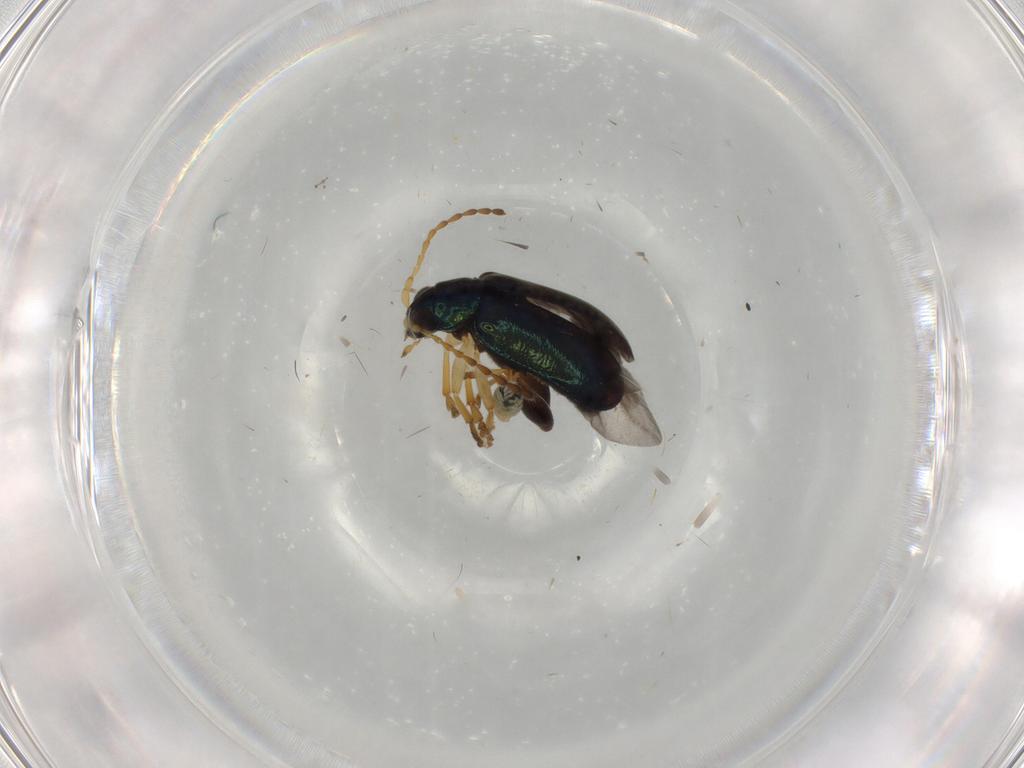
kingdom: Animalia
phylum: Arthropoda
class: Insecta
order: Coleoptera
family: Chrysomelidae
